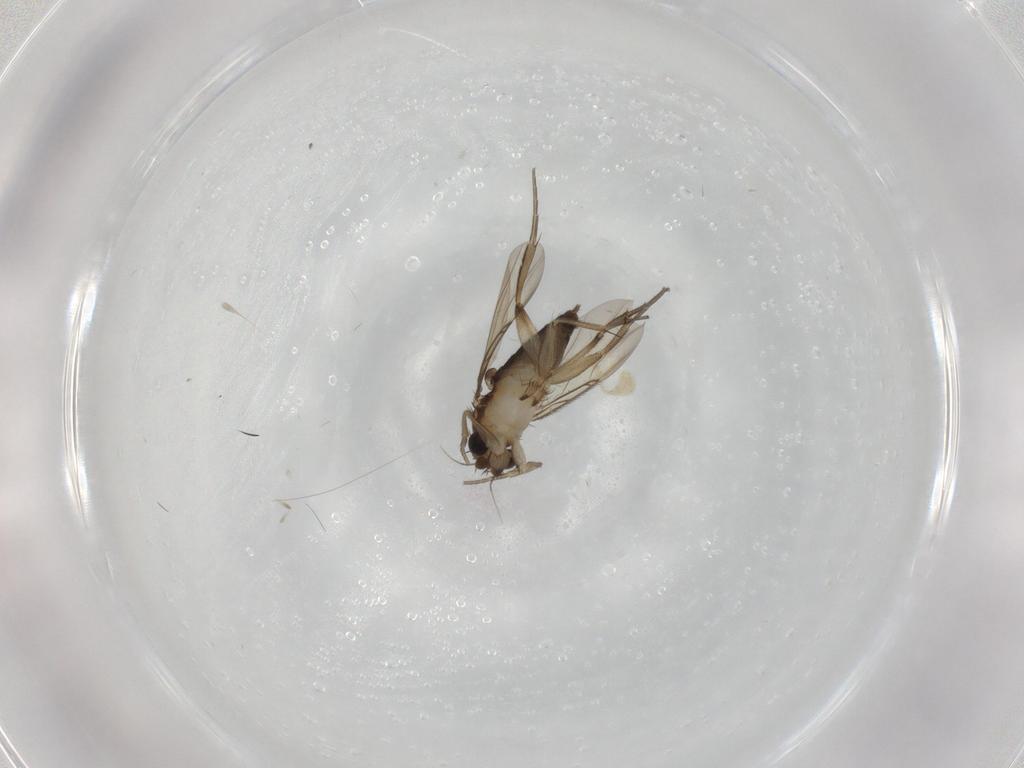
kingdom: Animalia
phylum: Arthropoda
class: Insecta
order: Diptera
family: Phoridae
